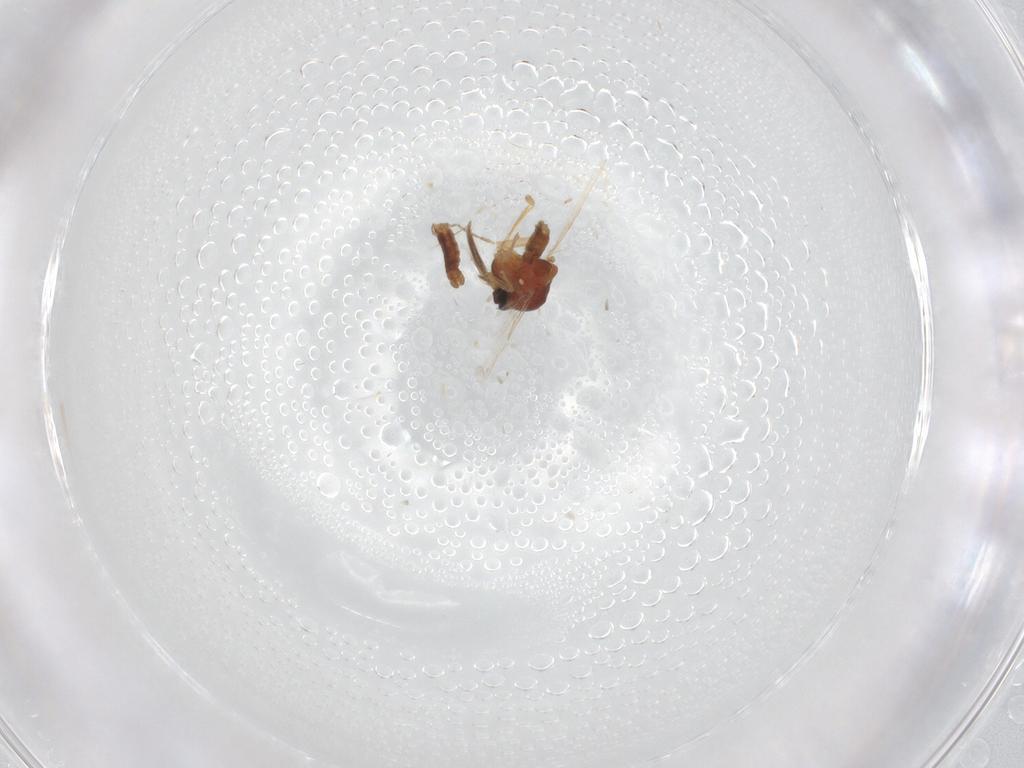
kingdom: Animalia
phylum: Arthropoda
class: Insecta
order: Diptera
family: Ceratopogonidae
